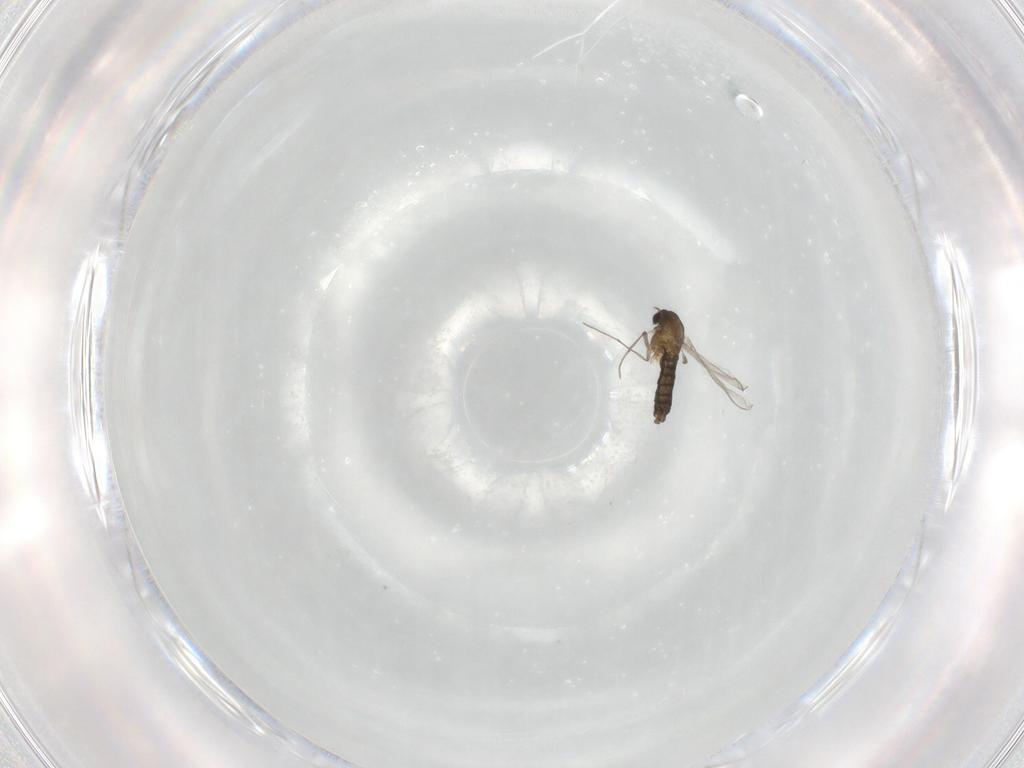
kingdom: Animalia
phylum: Arthropoda
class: Insecta
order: Diptera
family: Chironomidae
